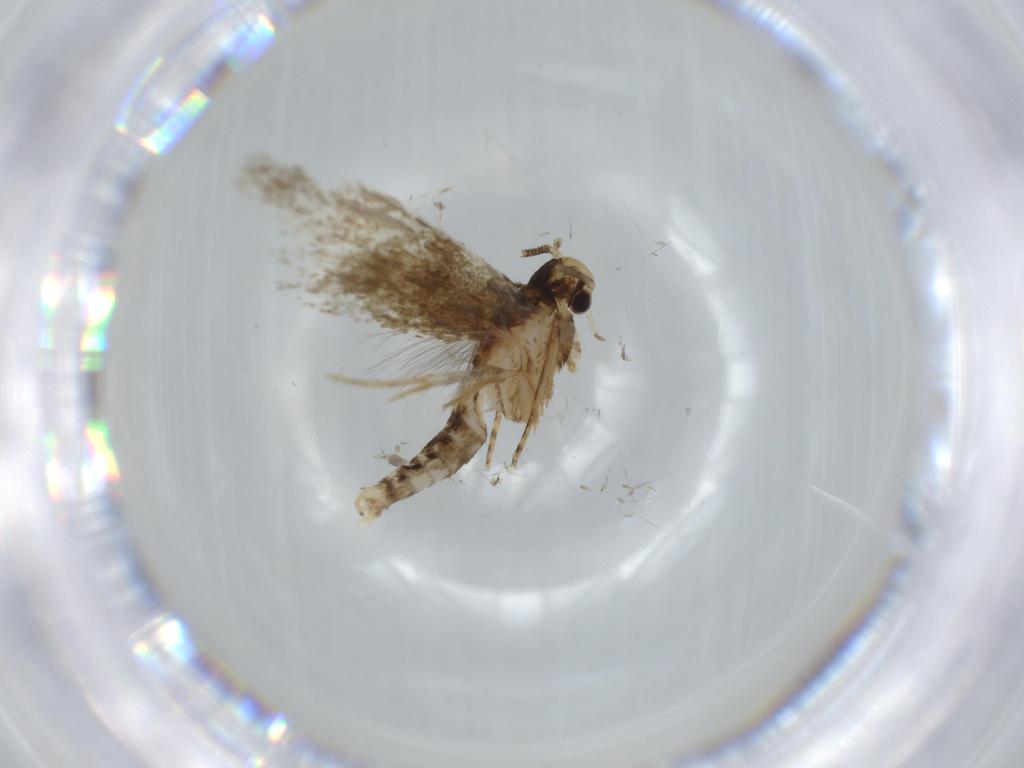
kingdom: Animalia
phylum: Arthropoda
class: Insecta
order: Lepidoptera
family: Tineidae
